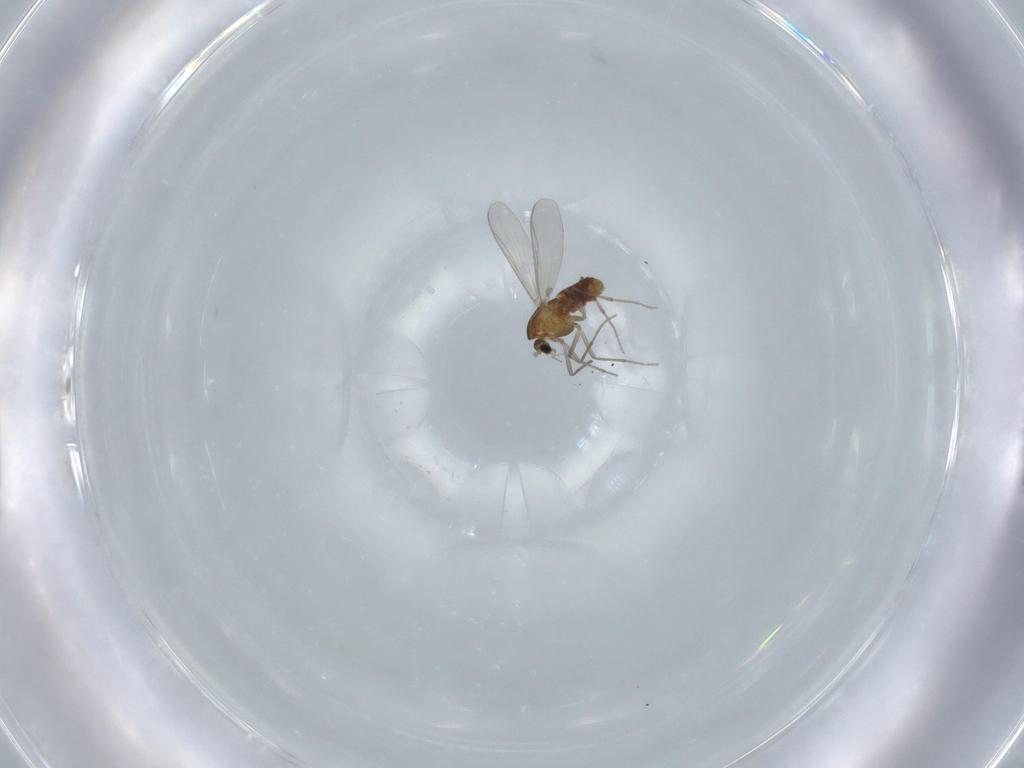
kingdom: Animalia
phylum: Arthropoda
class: Insecta
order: Diptera
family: Chironomidae
